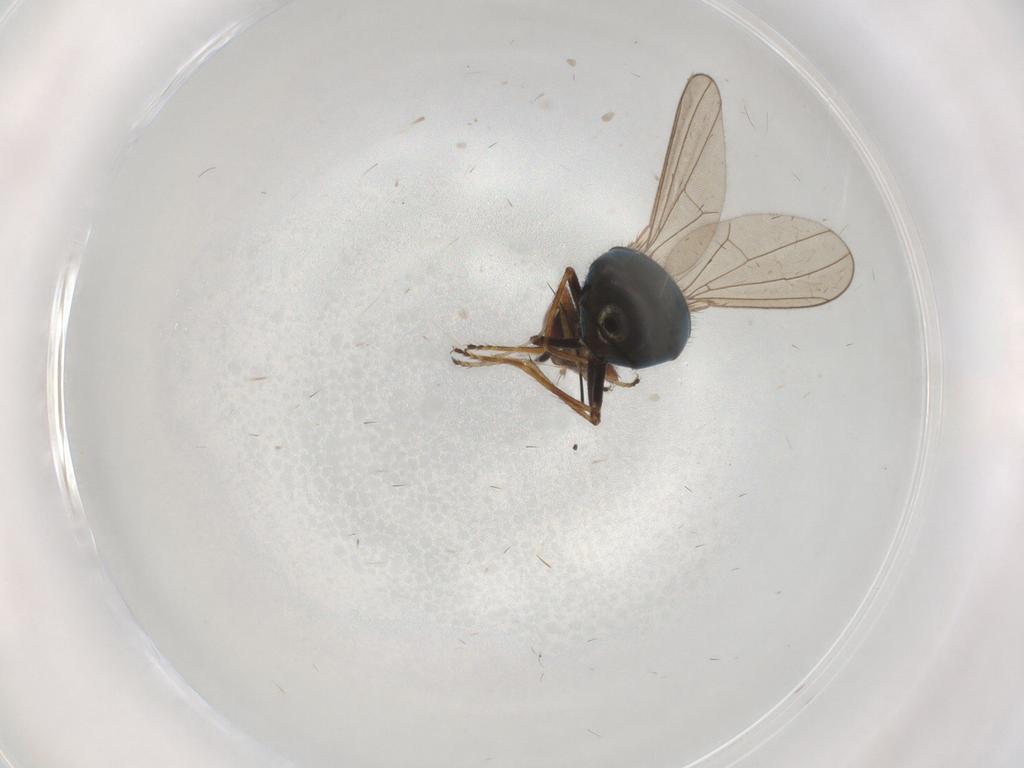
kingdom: Animalia
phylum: Arthropoda
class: Insecta
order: Diptera
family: Ephydridae
